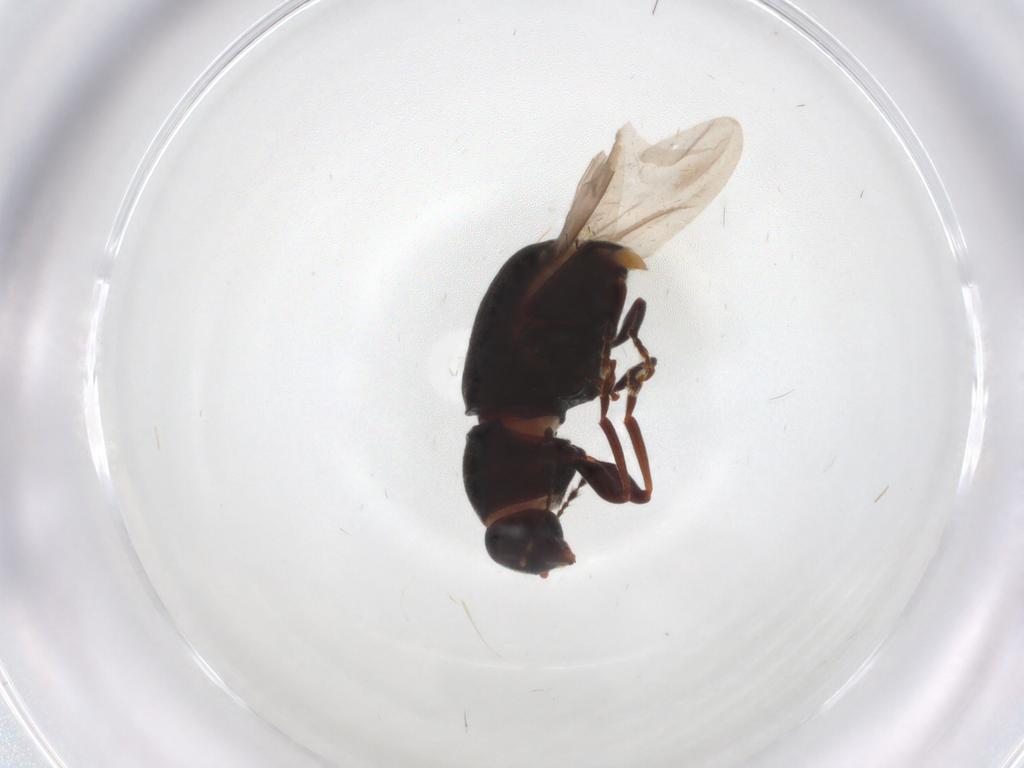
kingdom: Animalia
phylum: Arthropoda
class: Insecta
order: Coleoptera
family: Anthribidae
